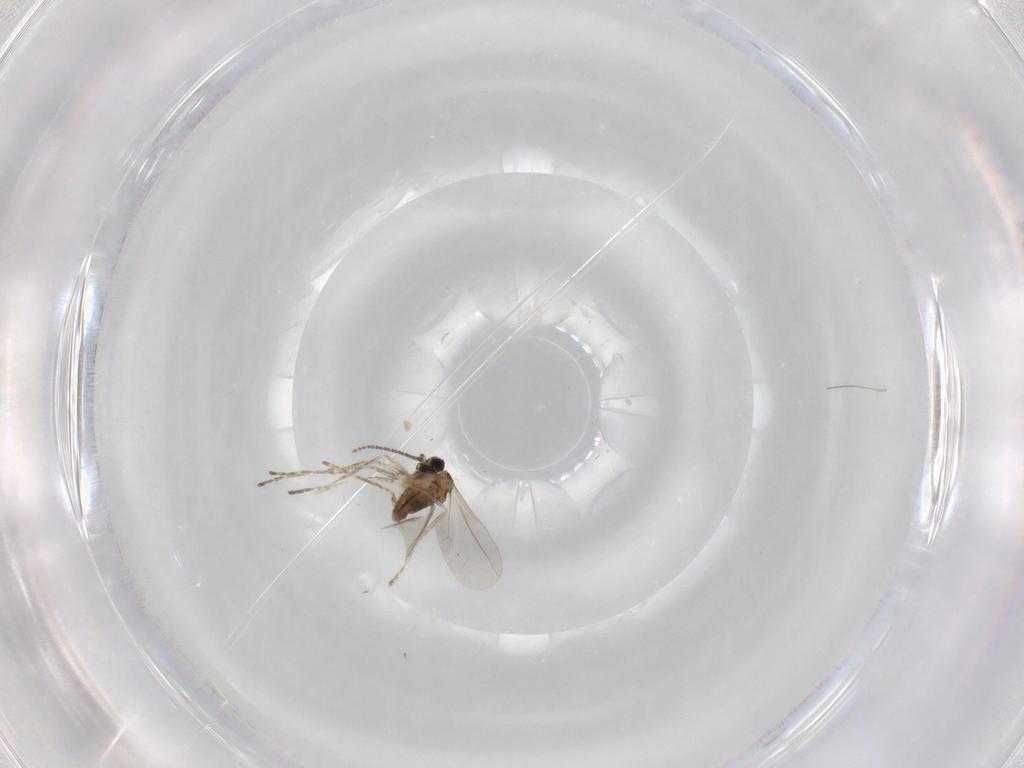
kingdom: Animalia
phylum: Arthropoda
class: Insecta
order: Diptera
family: Cecidomyiidae
